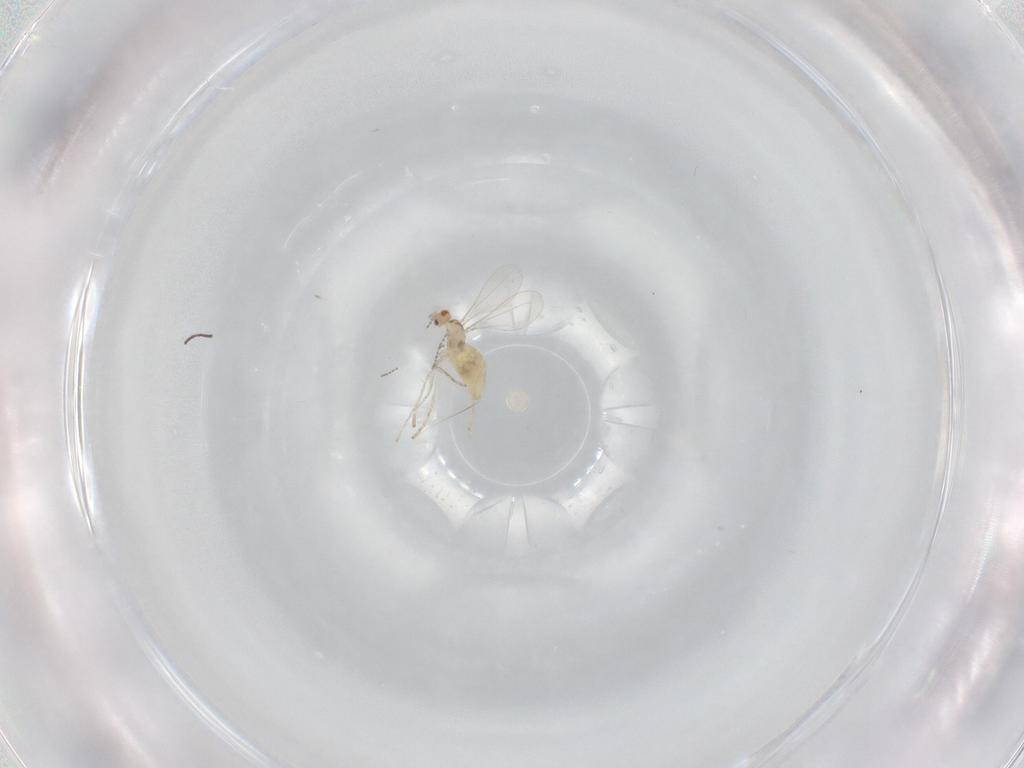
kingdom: Animalia
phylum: Arthropoda
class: Insecta
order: Diptera
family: Cecidomyiidae
